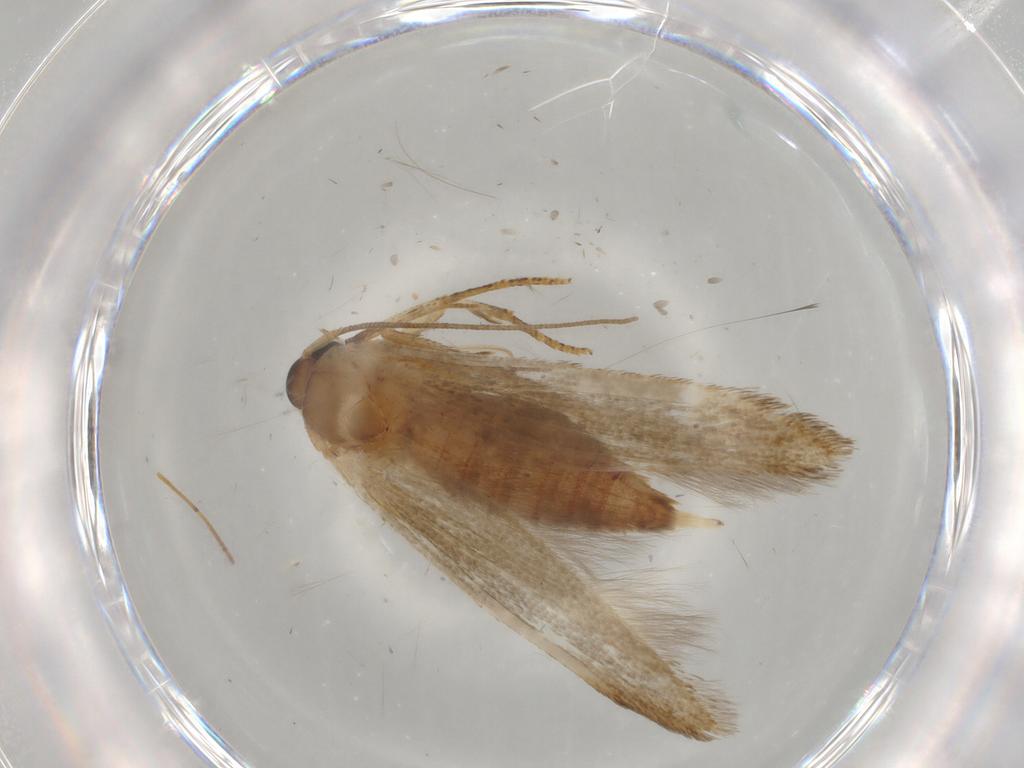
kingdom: Animalia
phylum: Arthropoda
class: Insecta
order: Lepidoptera
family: Blastobasidae
